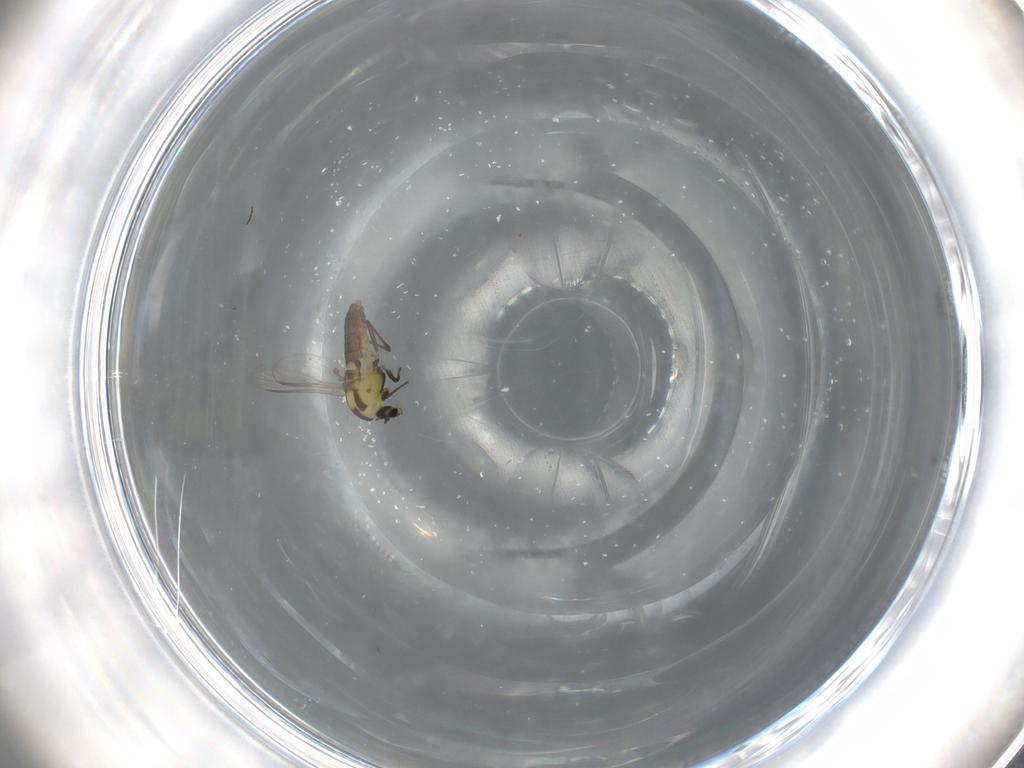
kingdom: Animalia
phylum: Arthropoda
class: Insecta
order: Diptera
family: Chironomidae
